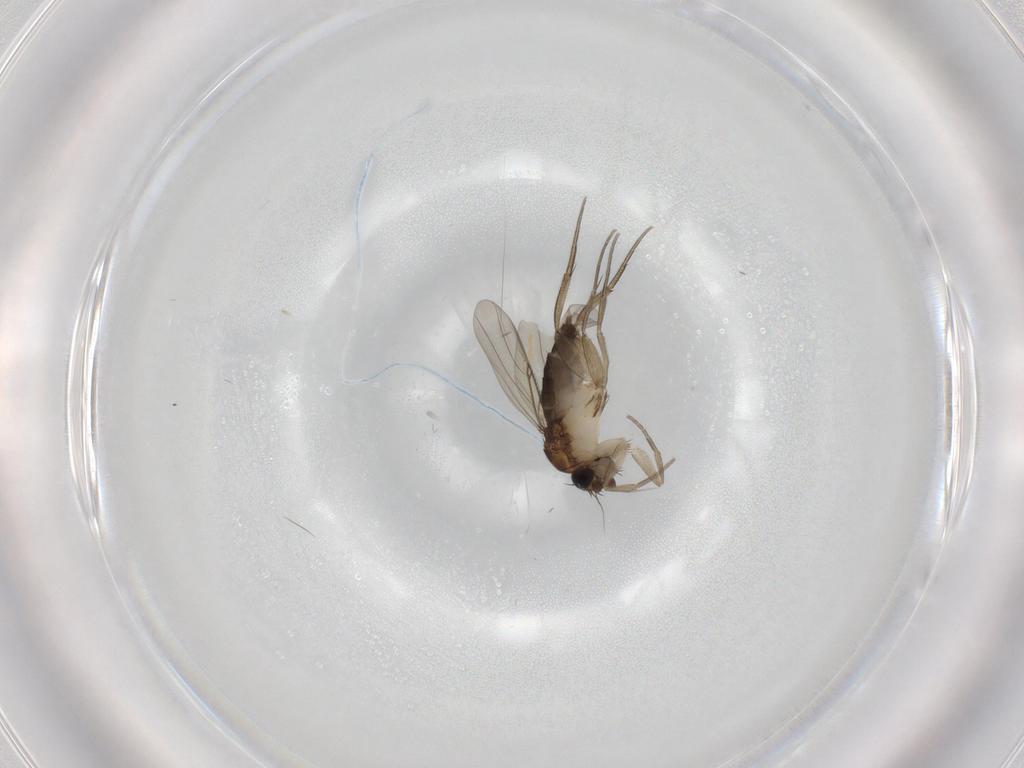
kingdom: Animalia
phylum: Arthropoda
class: Insecta
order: Diptera
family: Phoridae
